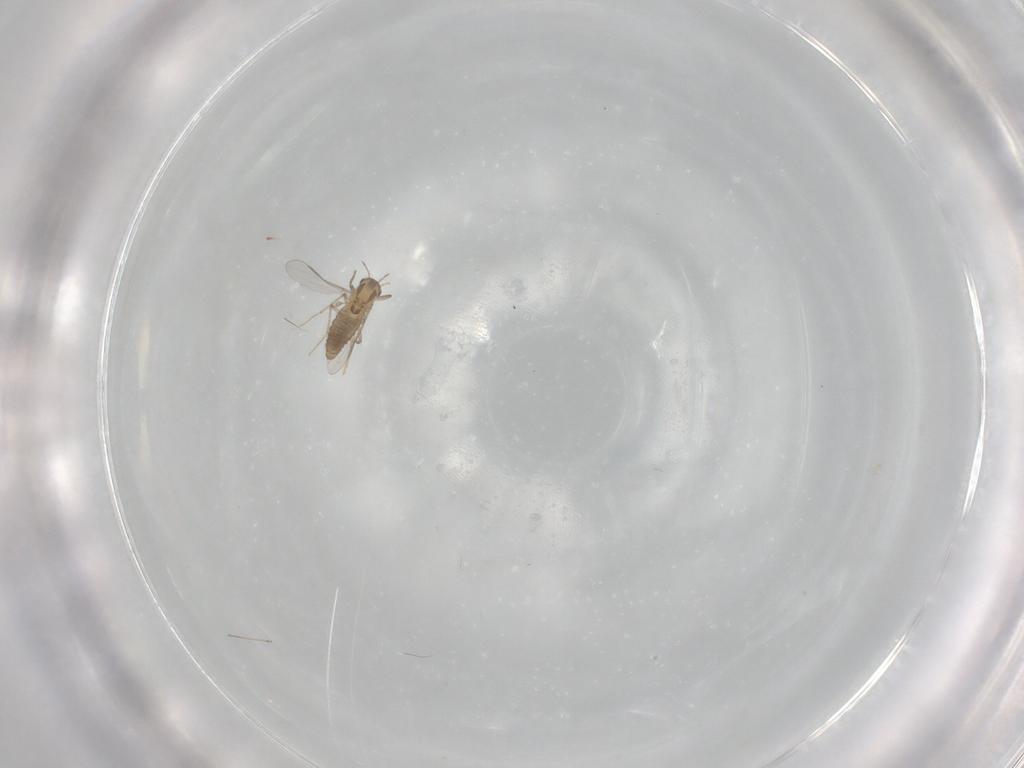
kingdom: Animalia
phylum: Arthropoda
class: Insecta
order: Diptera
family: Chironomidae
